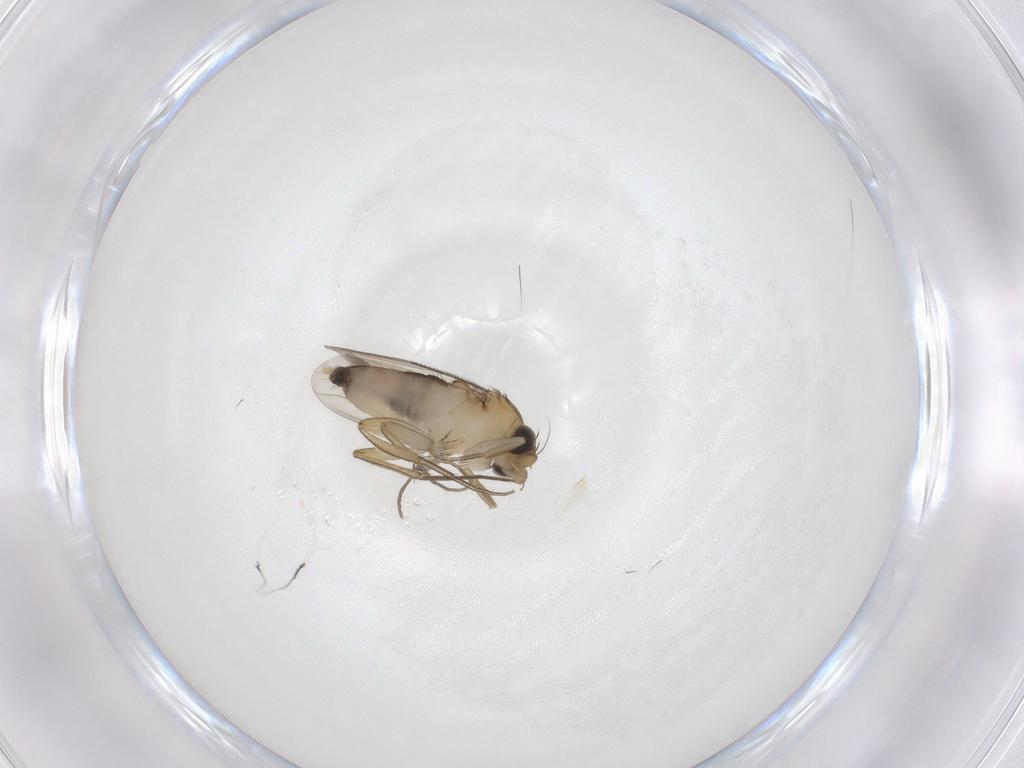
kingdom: Animalia
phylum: Arthropoda
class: Insecta
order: Diptera
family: Phoridae
